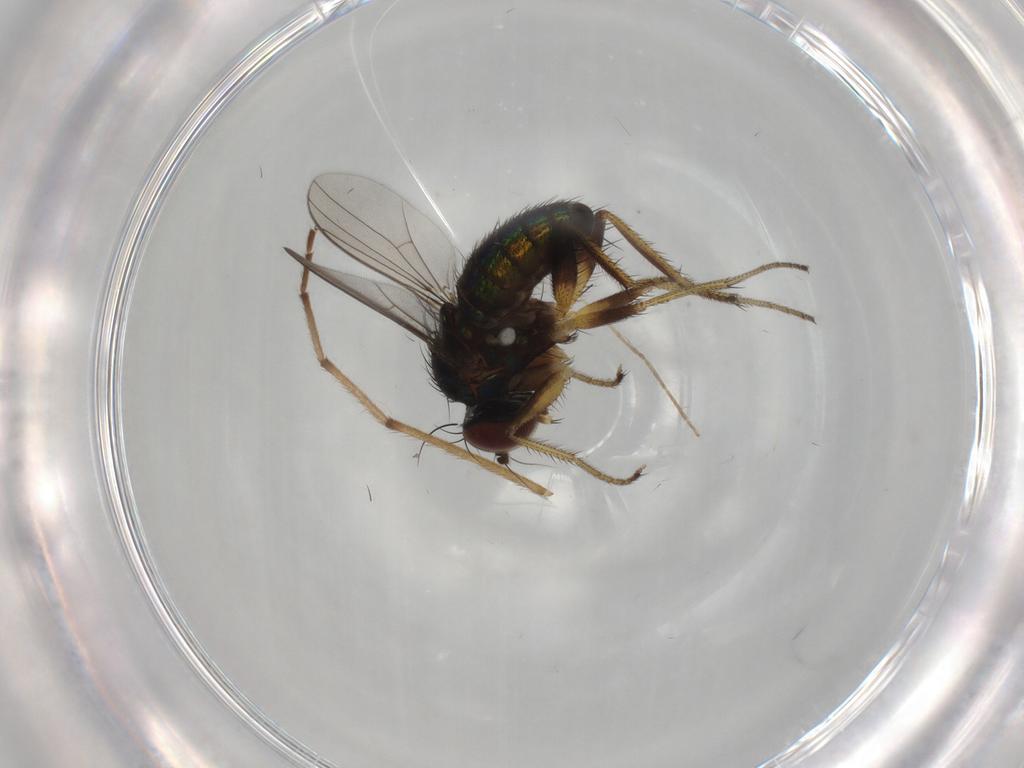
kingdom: Animalia
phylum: Arthropoda
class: Insecta
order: Diptera
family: Dolichopodidae
